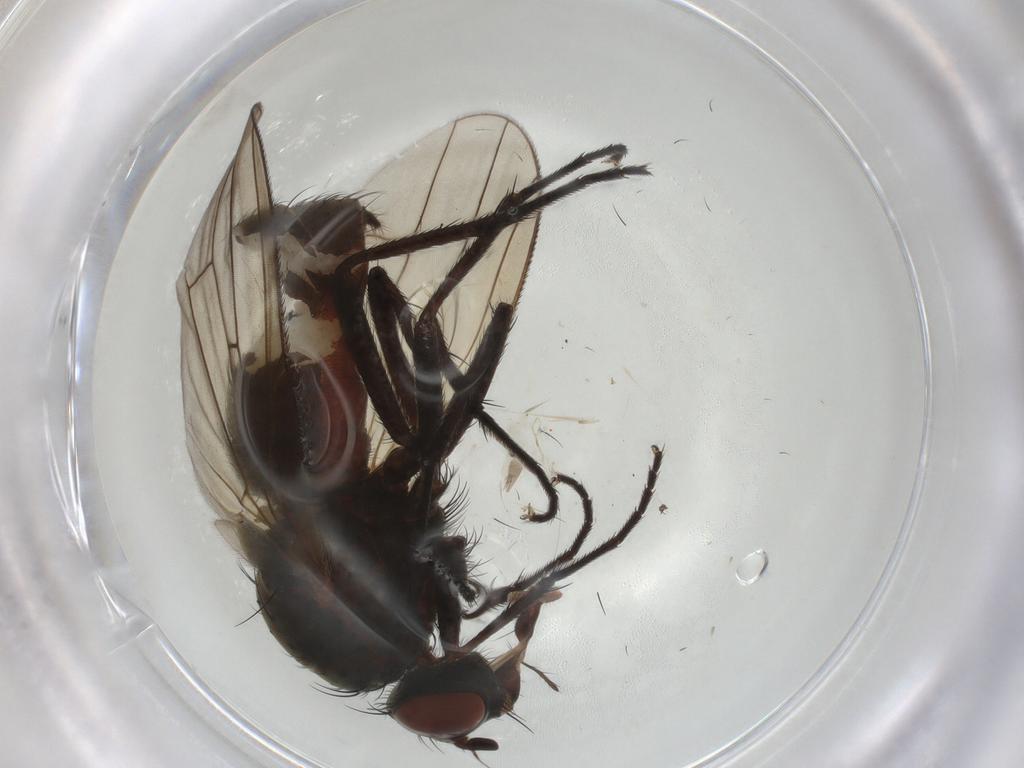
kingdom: Animalia
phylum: Arthropoda
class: Insecta
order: Diptera
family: Anthomyiidae
